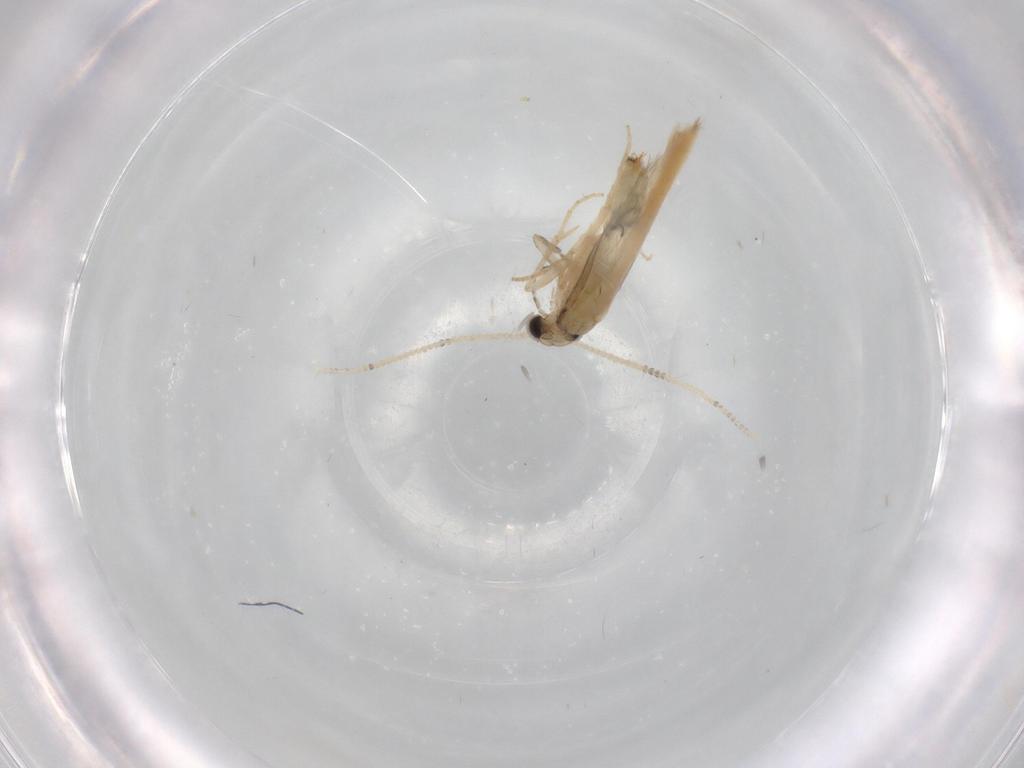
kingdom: Animalia
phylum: Arthropoda
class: Insecta
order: Trichoptera
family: Hydroptilidae
